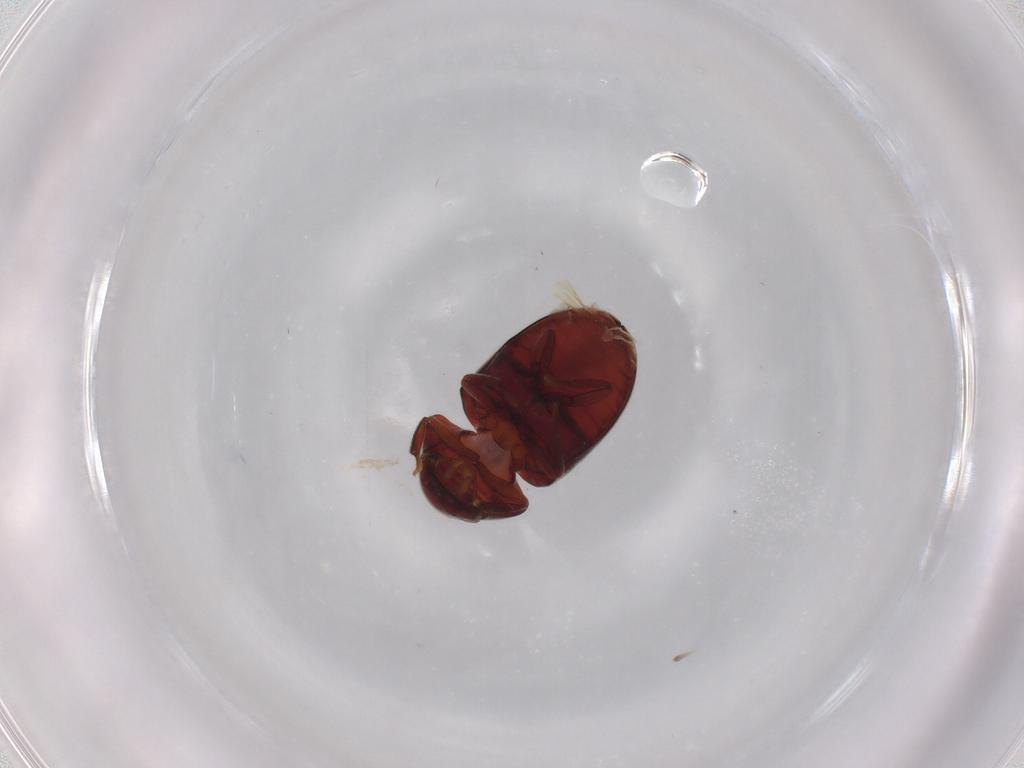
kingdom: Animalia
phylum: Arthropoda
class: Insecta
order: Coleoptera
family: Ptinidae
